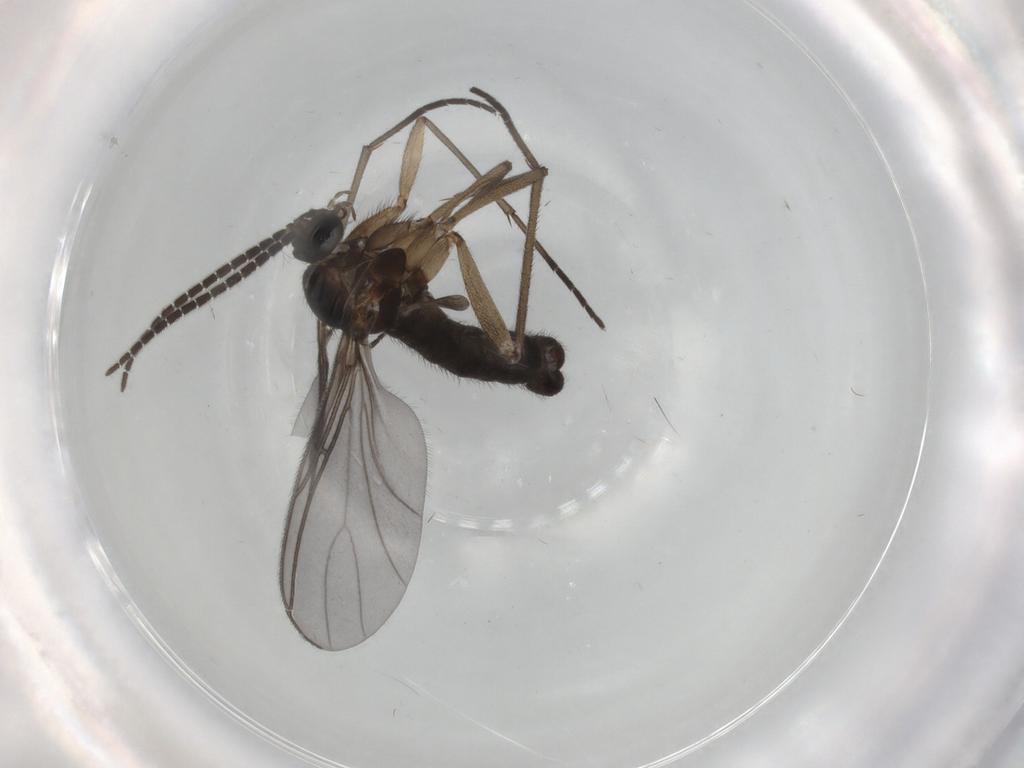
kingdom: Animalia
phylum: Arthropoda
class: Insecta
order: Diptera
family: Sciaridae
